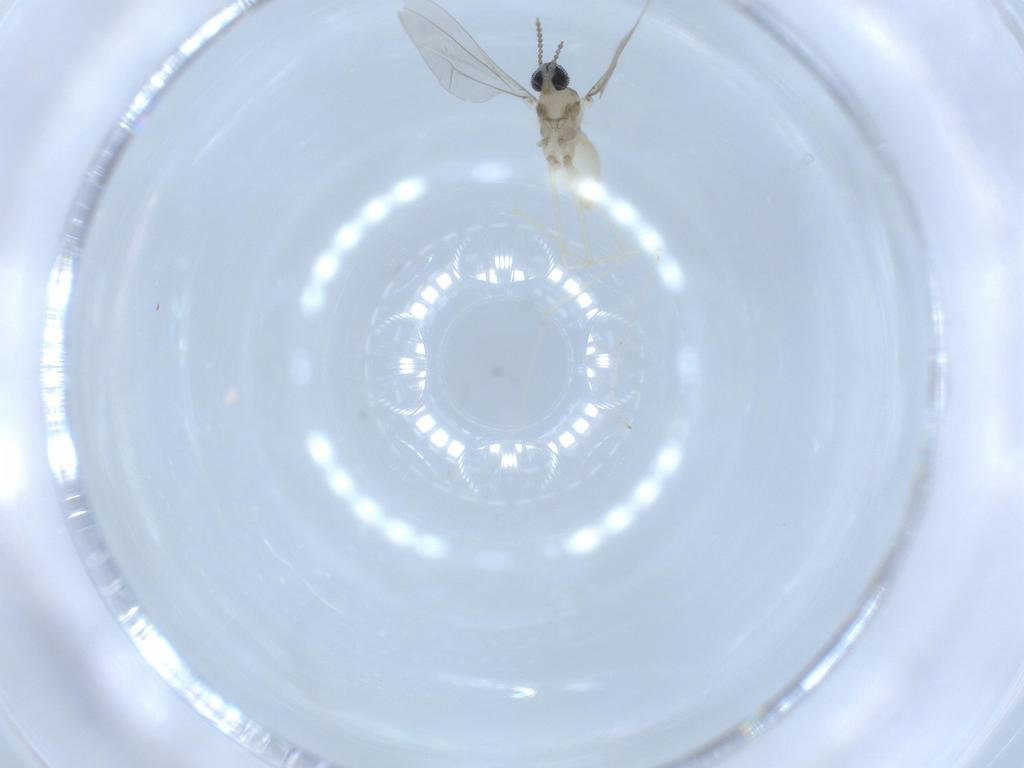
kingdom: Animalia
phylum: Arthropoda
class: Insecta
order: Diptera
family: Cecidomyiidae
